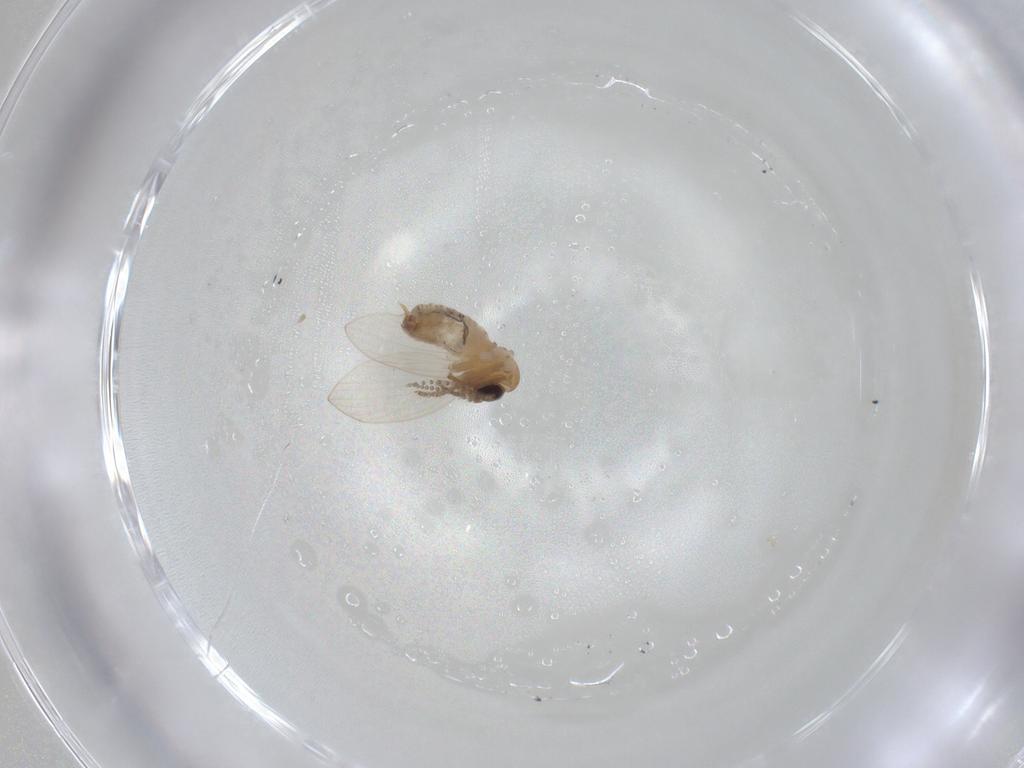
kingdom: Animalia
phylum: Arthropoda
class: Insecta
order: Diptera
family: Psychodidae
